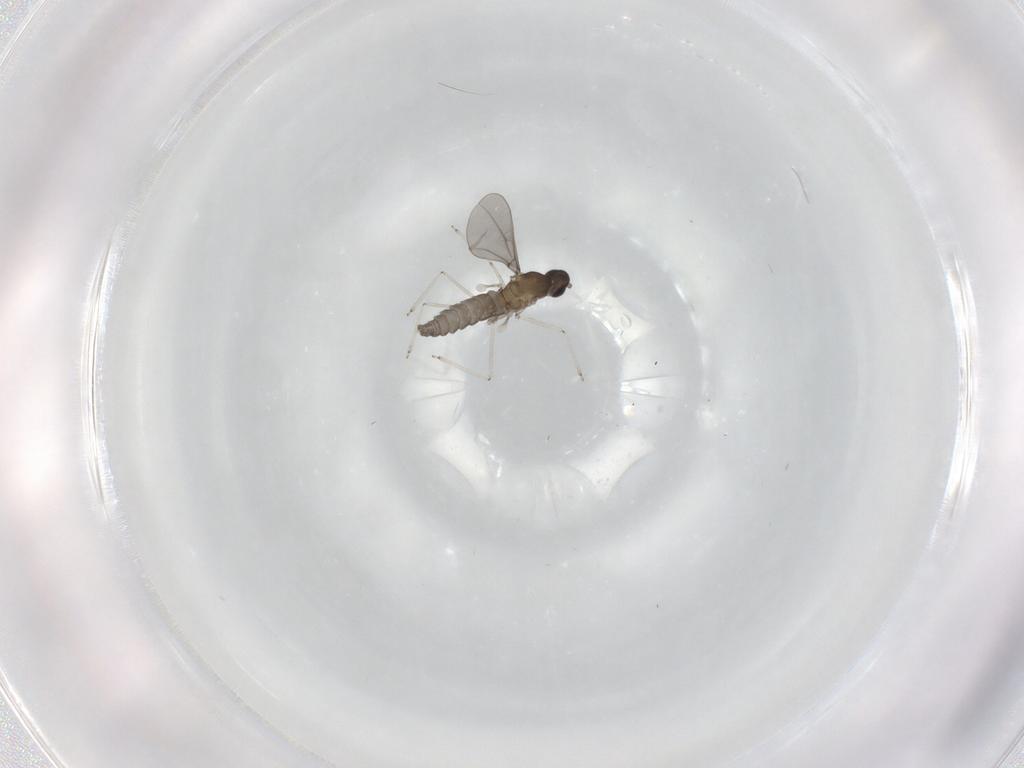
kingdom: Animalia
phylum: Arthropoda
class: Insecta
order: Diptera
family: Cecidomyiidae
